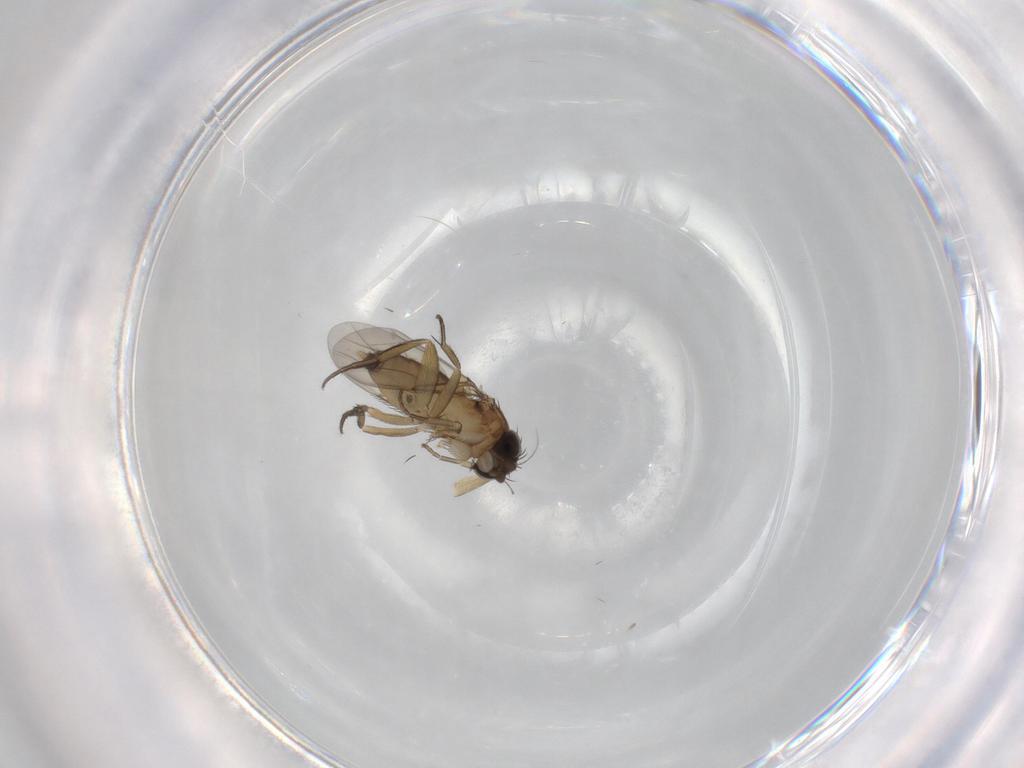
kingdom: Animalia
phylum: Arthropoda
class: Insecta
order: Diptera
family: Phoridae
